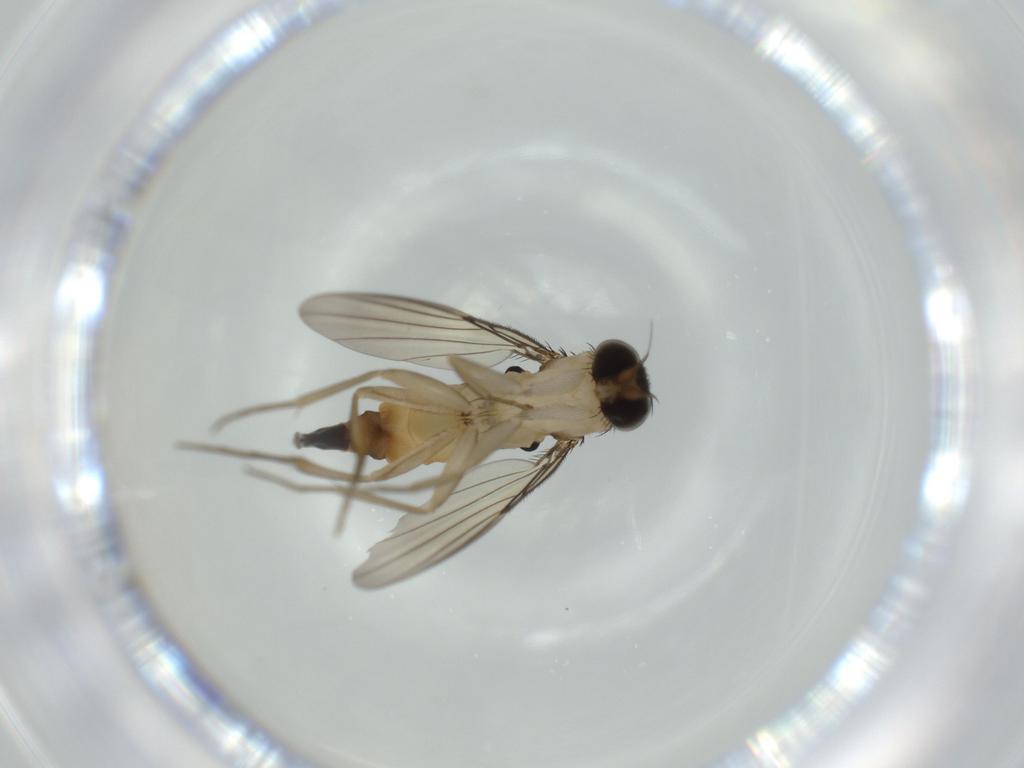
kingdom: Animalia
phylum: Arthropoda
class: Insecta
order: Diptera
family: Phoridae
